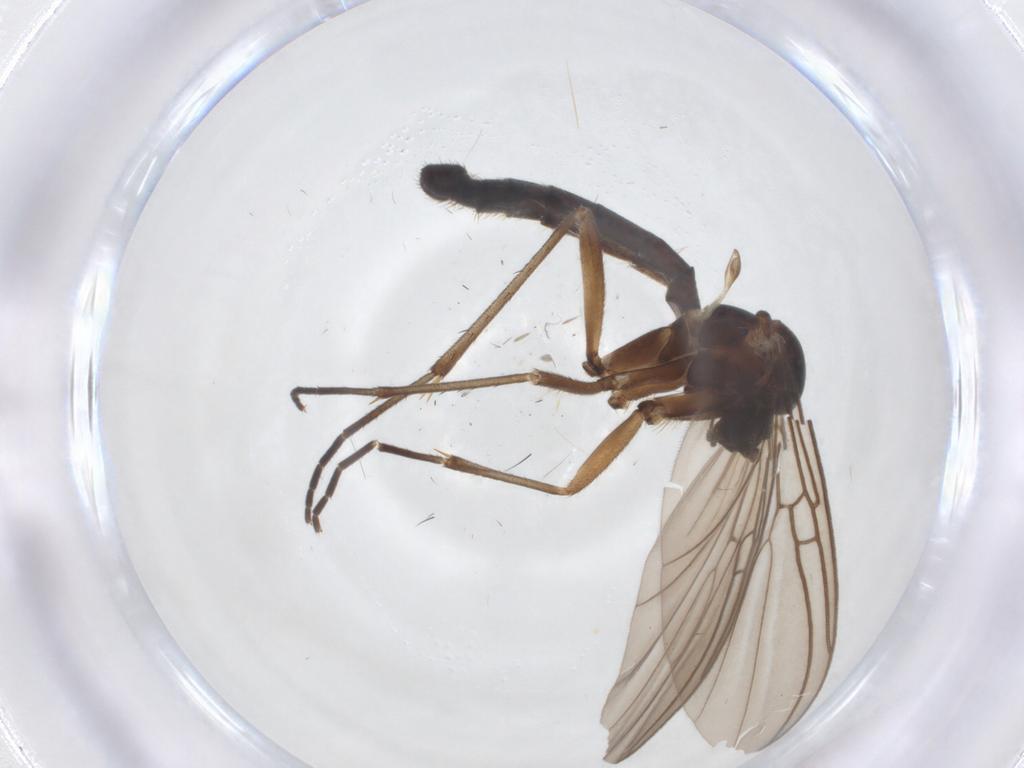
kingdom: Animalia
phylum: Arthropoda
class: Insecta
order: Diptera
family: Mycetophilidae
